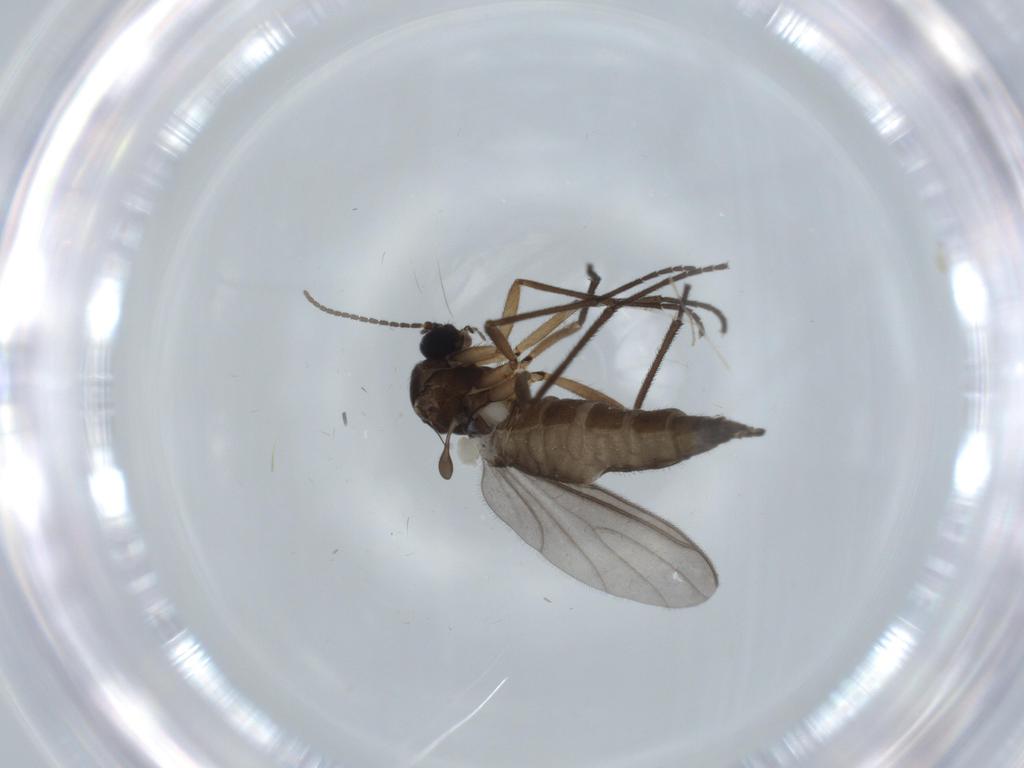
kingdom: Animalia
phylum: Arthropoda
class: Insecta
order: Diptera
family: Sciaridae
